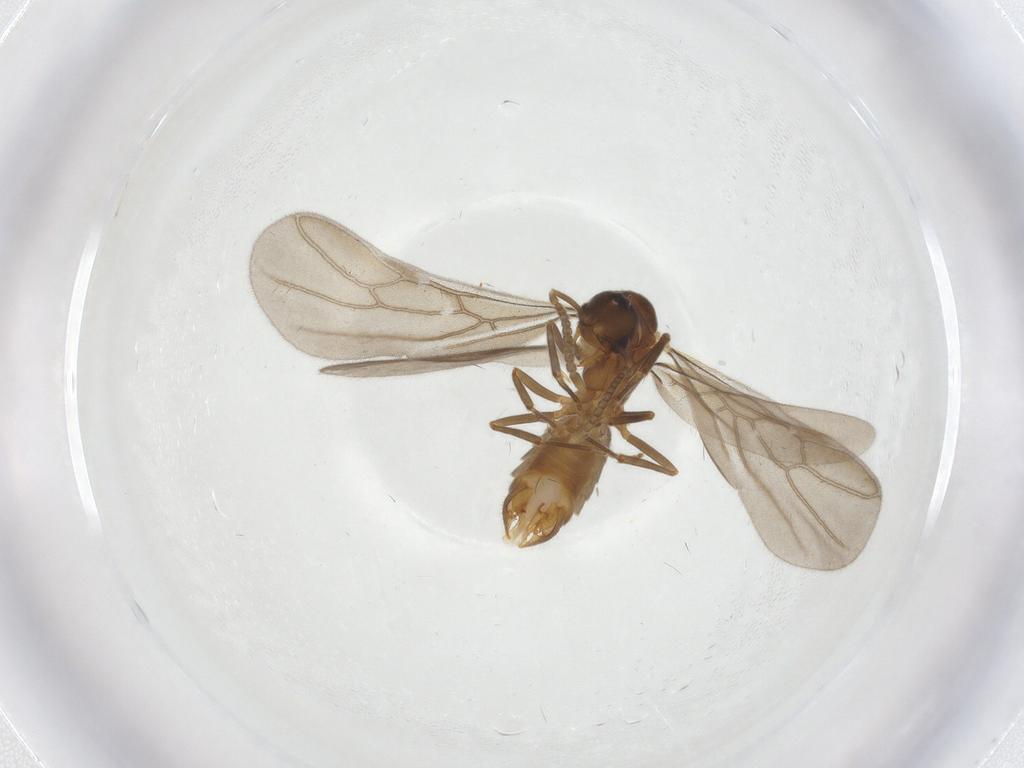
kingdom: Animalia
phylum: Arthropoda
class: Insecta
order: Hymenoptera
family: Formicidae
